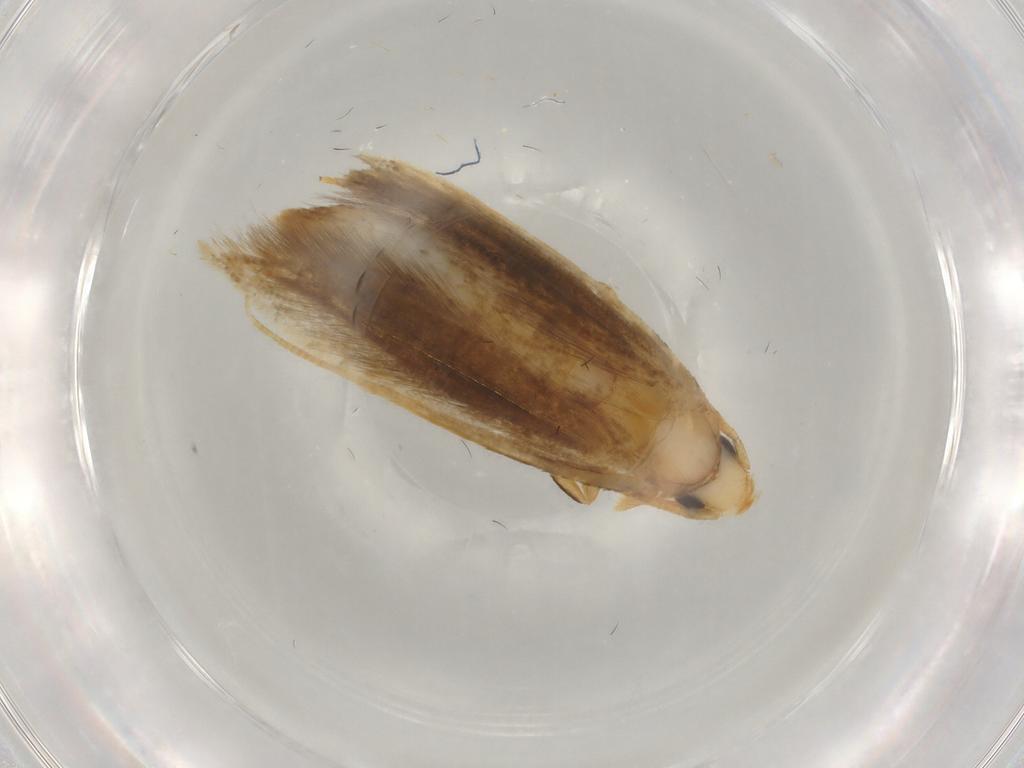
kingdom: Animalia
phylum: Arthropoda
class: Insecta
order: Lepidoptera
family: Tineidae
